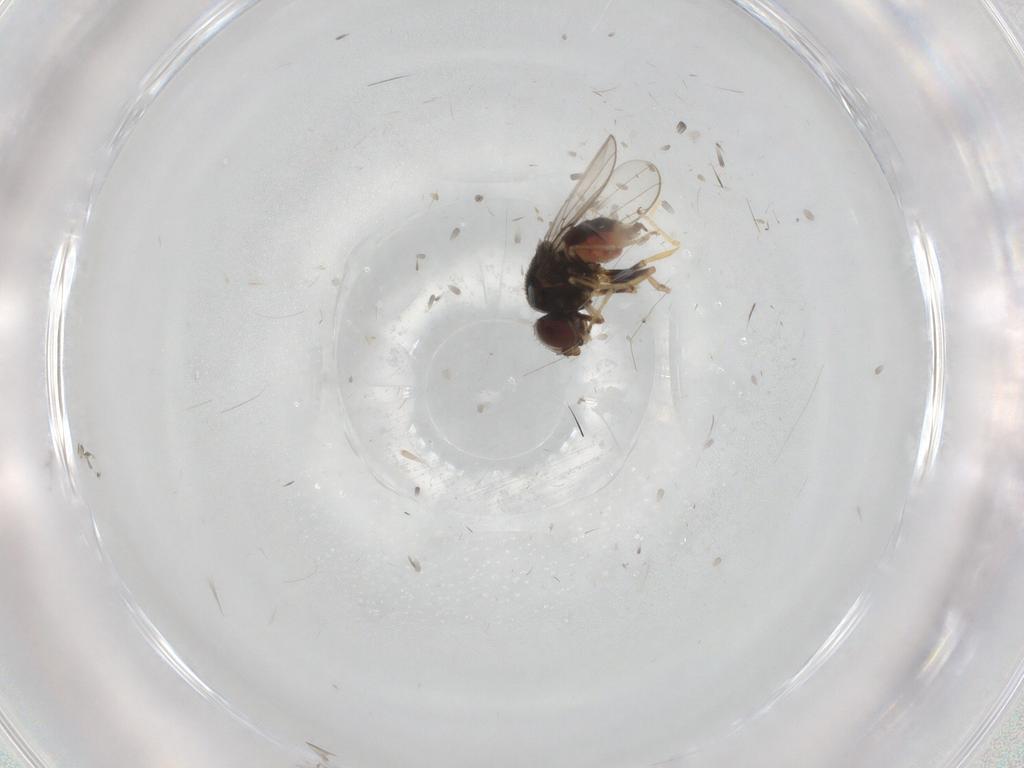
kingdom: Animalia
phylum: Arthropoda
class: Insecta
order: Diptera
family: Chloropidae
